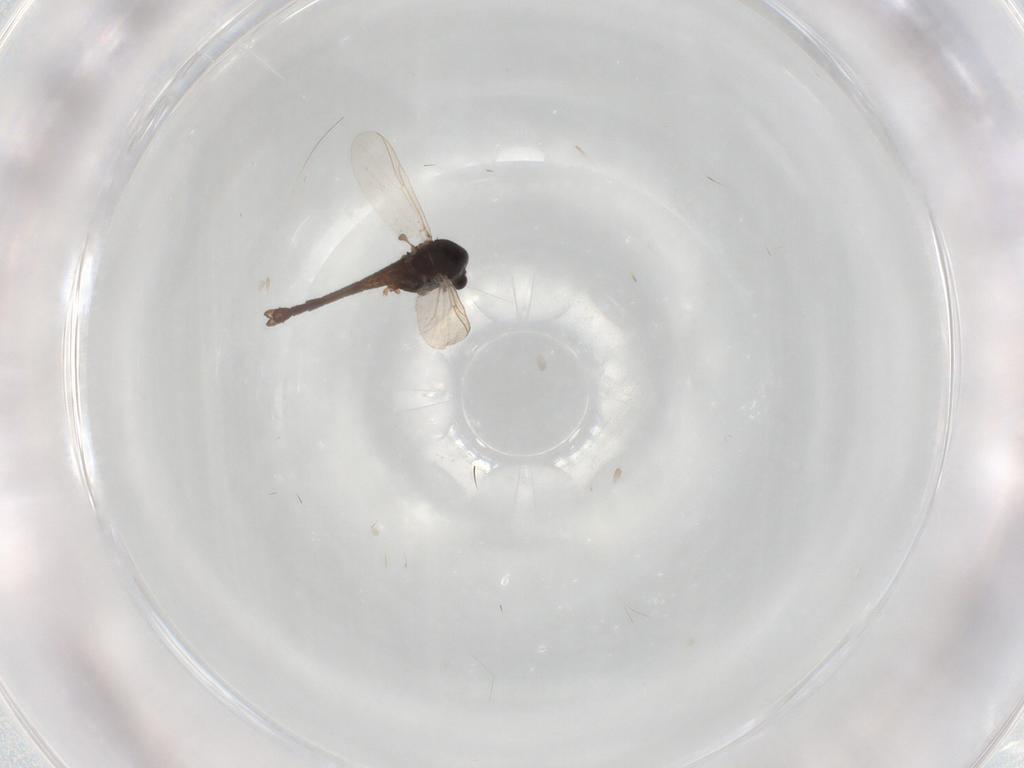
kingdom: Animalia
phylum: Arthropoda
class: Insecta
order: Diptera
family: Chironomidae
